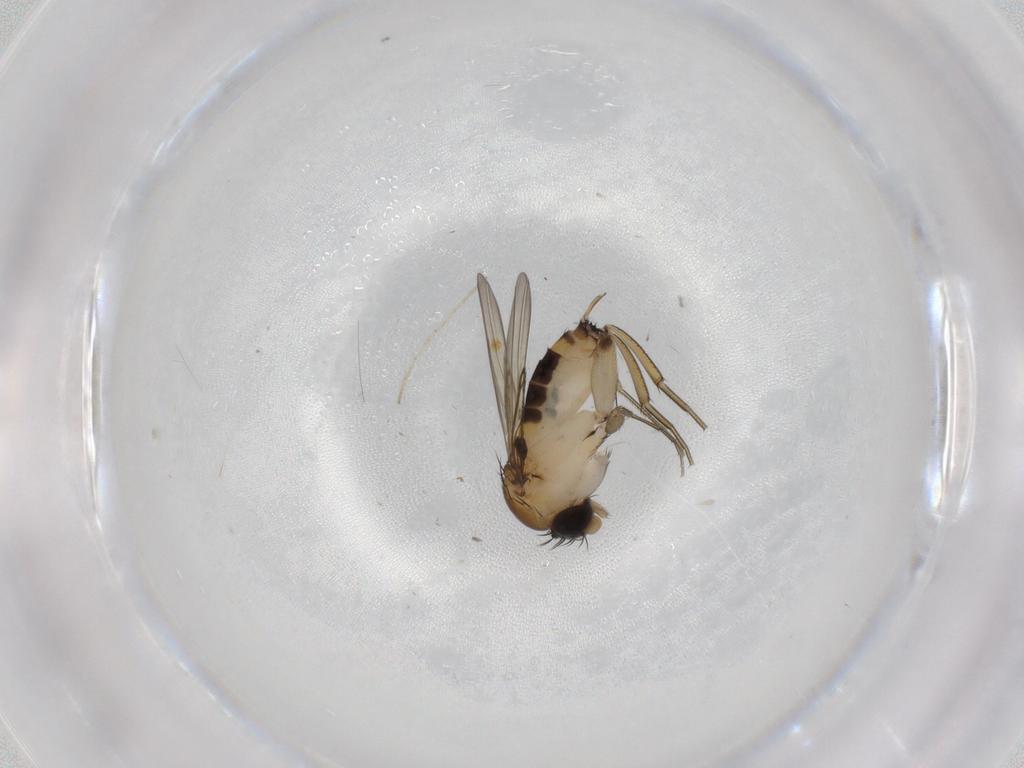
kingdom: Animalia
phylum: Arthropoda
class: Insecta
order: Diptera
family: Phoridae
